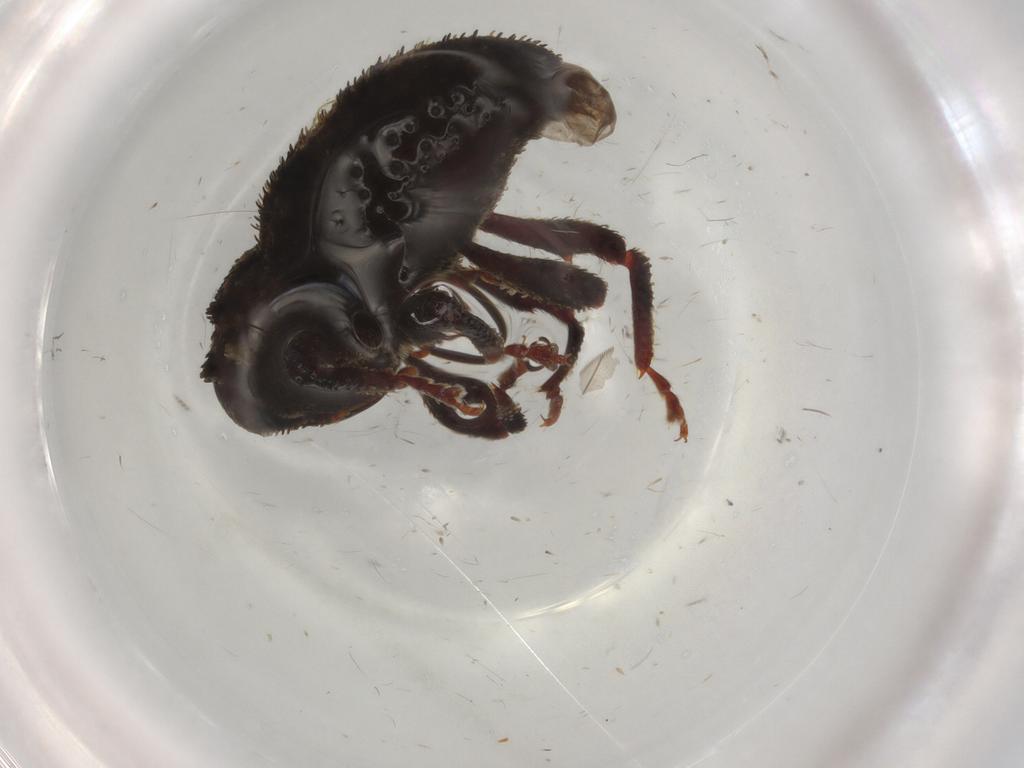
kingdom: Animalia
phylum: Arthropoda
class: Insecta
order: Coleoptera
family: Curculionidae
